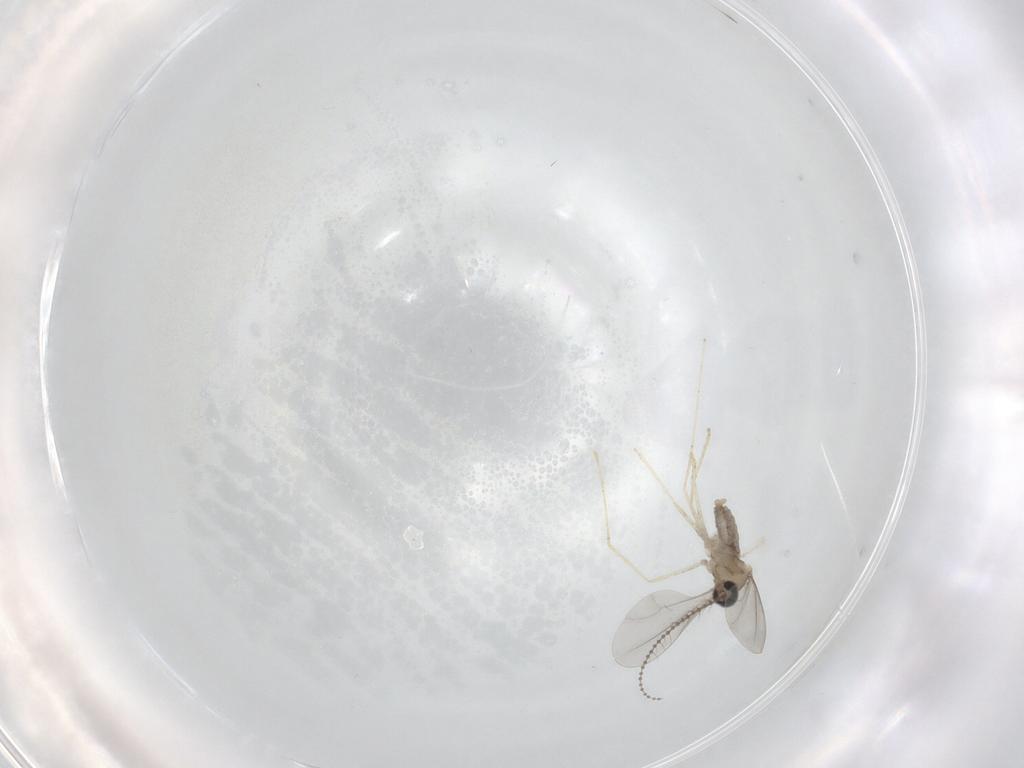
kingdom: Animalia
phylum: Arthropoda
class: Insecta
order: Diptera
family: Cecidomyiidae
